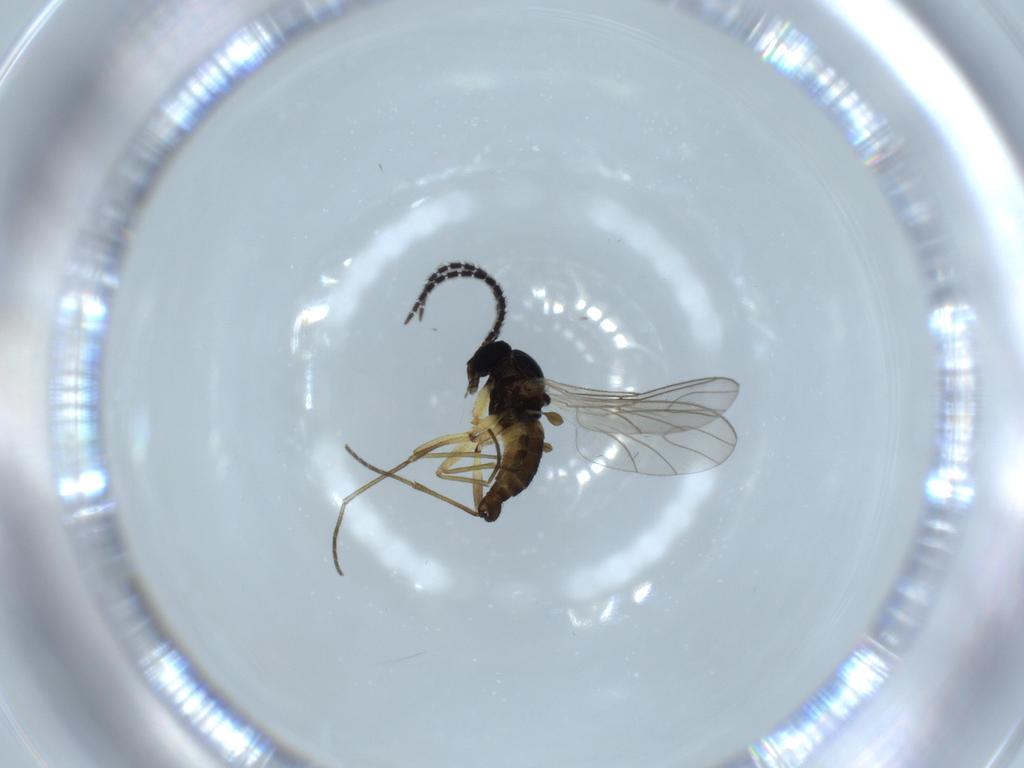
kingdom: Animalia
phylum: Arthropoda
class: Insecta
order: Diptera
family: Sciaridae
